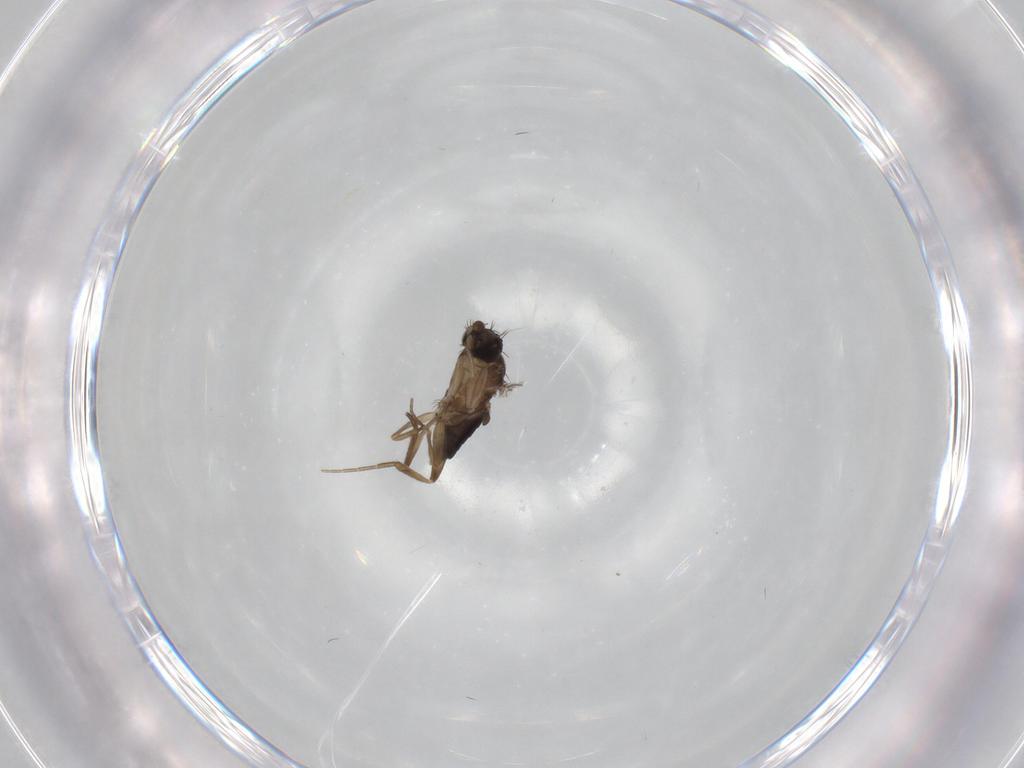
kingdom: Animalia
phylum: Arthropoda
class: Insecta
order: Diptera
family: Phoridae
